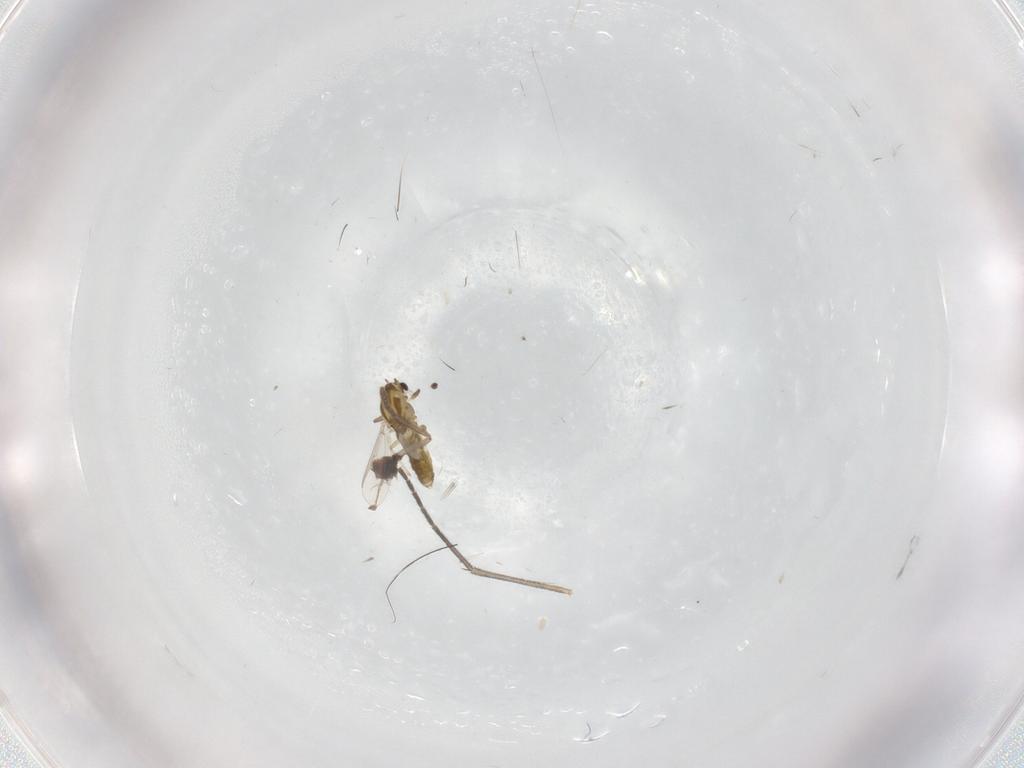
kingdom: Animalia
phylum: Arthropoda
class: Insecta
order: Diptera
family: Chironomidae
